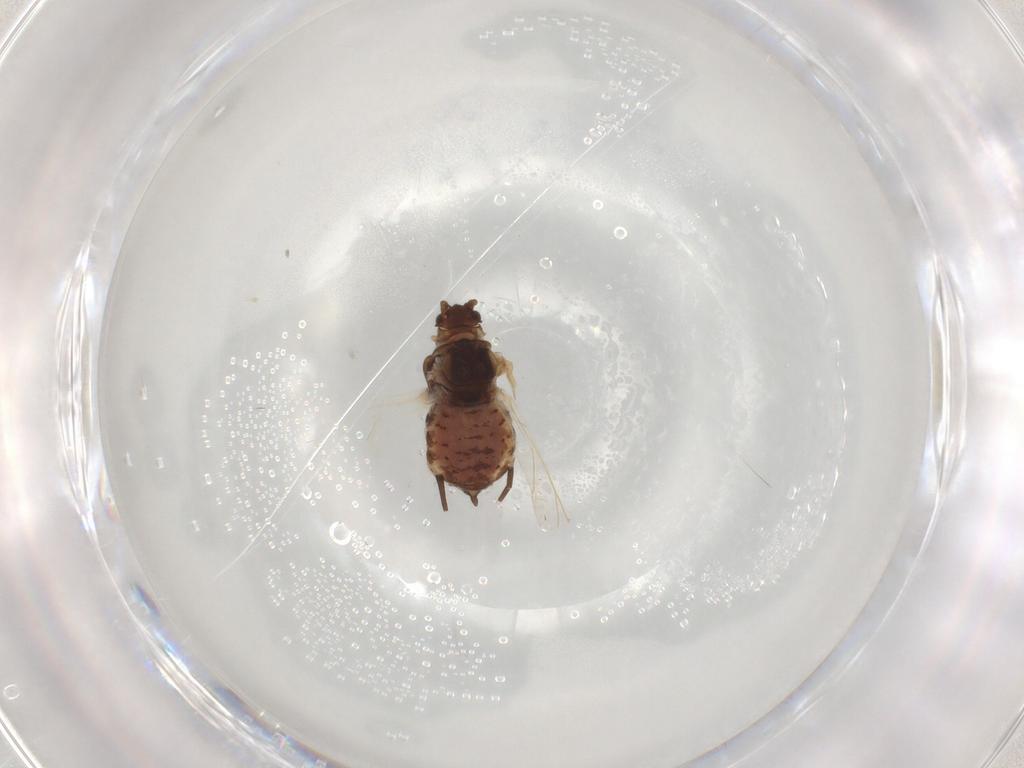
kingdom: Animalia
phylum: Arthropoda
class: Insecta
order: Hemiptera
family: Aphididae
